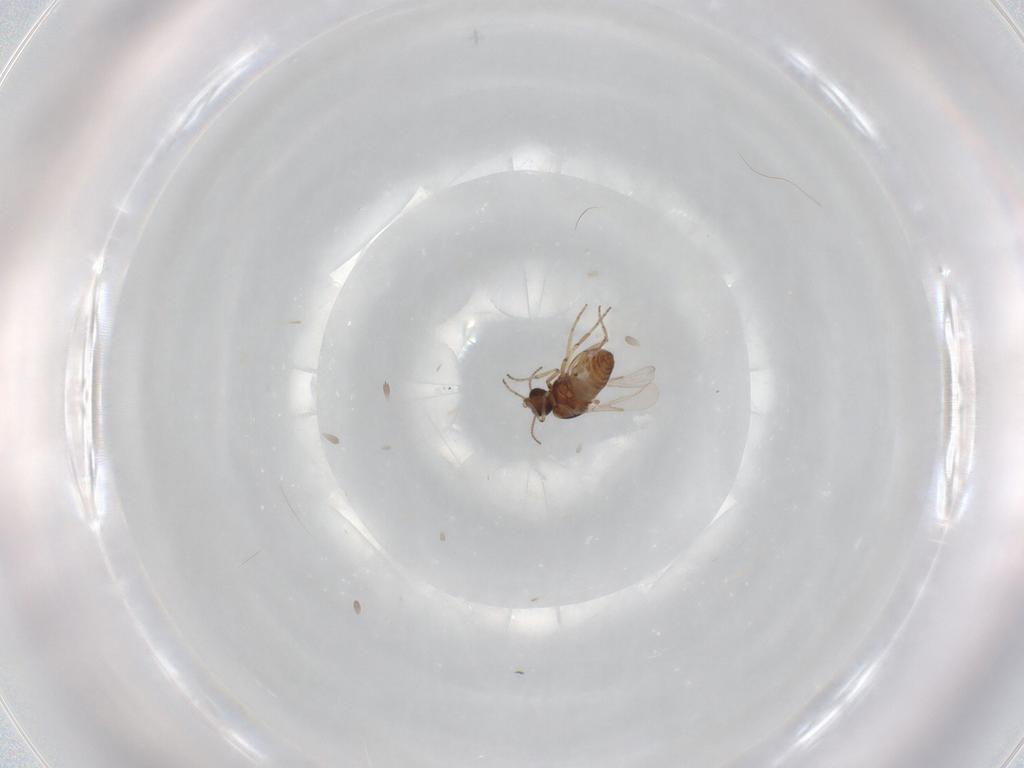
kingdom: Animalia
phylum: Arthropoda
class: Insecta
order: Diptera
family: Ceratopogonidae
